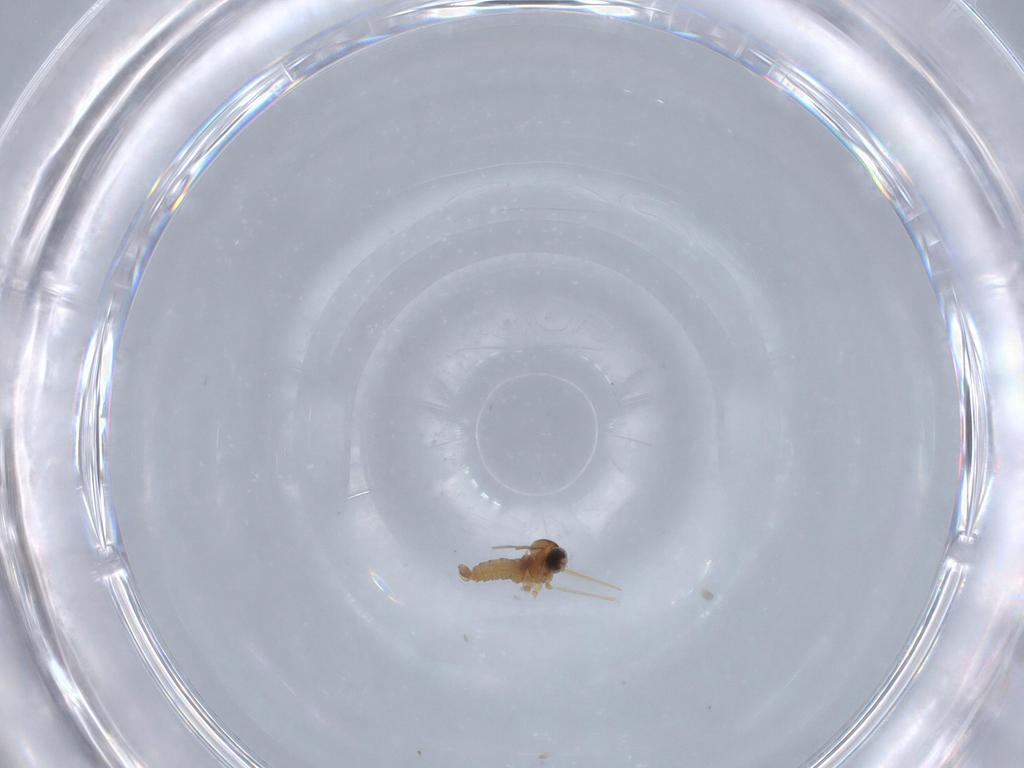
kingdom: Animalia
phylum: Arthropoda
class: Insecta
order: Diptera
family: Cecidomyiidae
